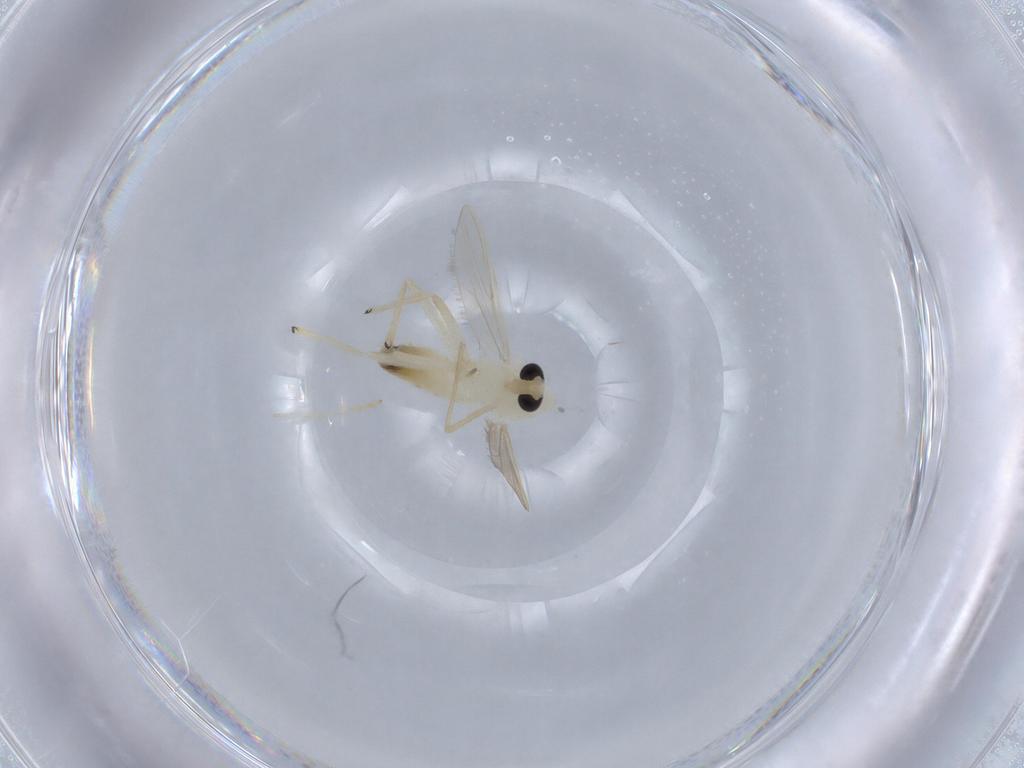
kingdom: Animalia
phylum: Arthropoda
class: Insecta
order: Diptera
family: Chironomidae
